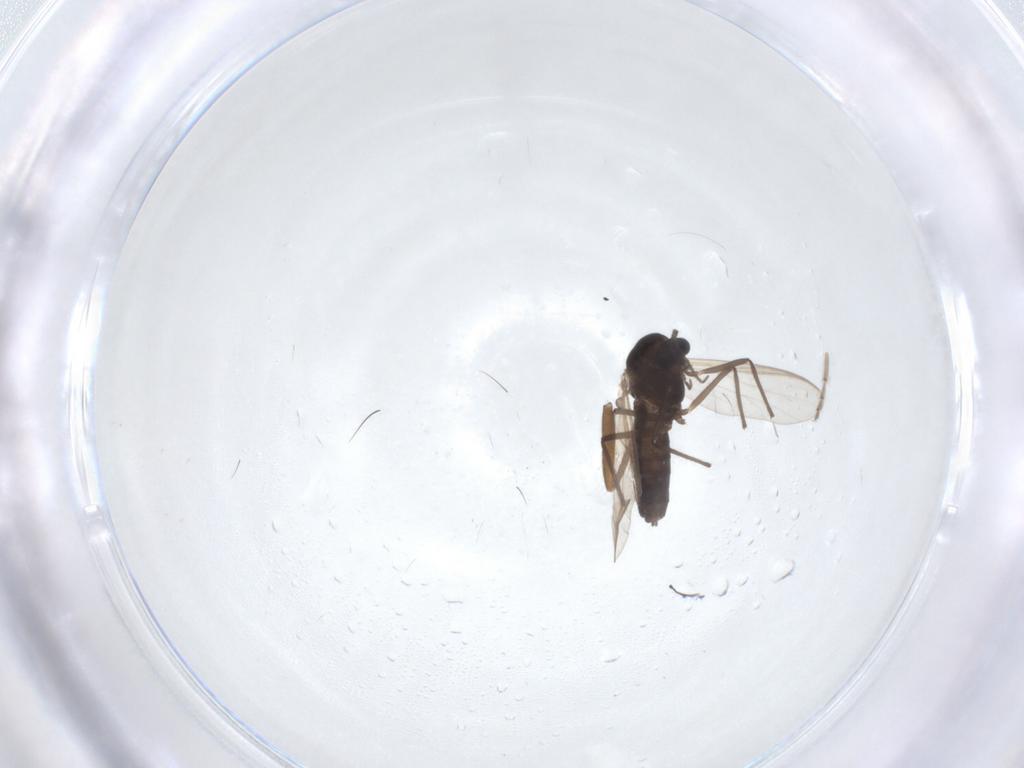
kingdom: Animalia
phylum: Arthropoda
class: Insecta
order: Diptera
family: Sciaridae
